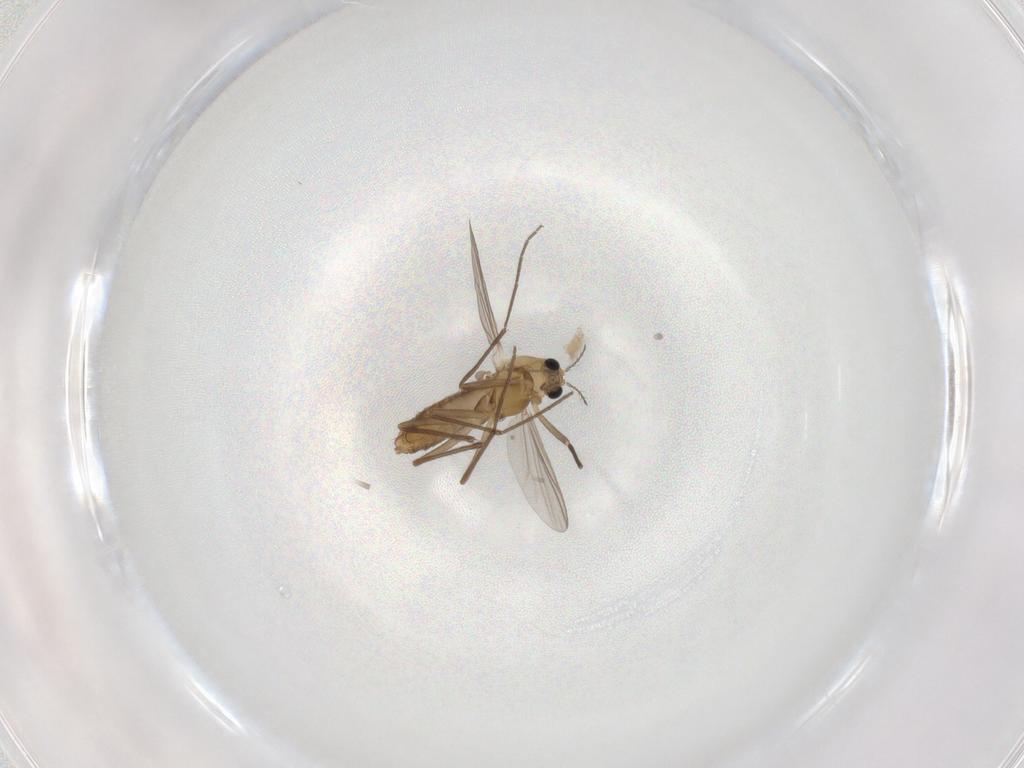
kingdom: Animalia
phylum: Arthropoda
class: Insecta
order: Diptera
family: Chironomidae
